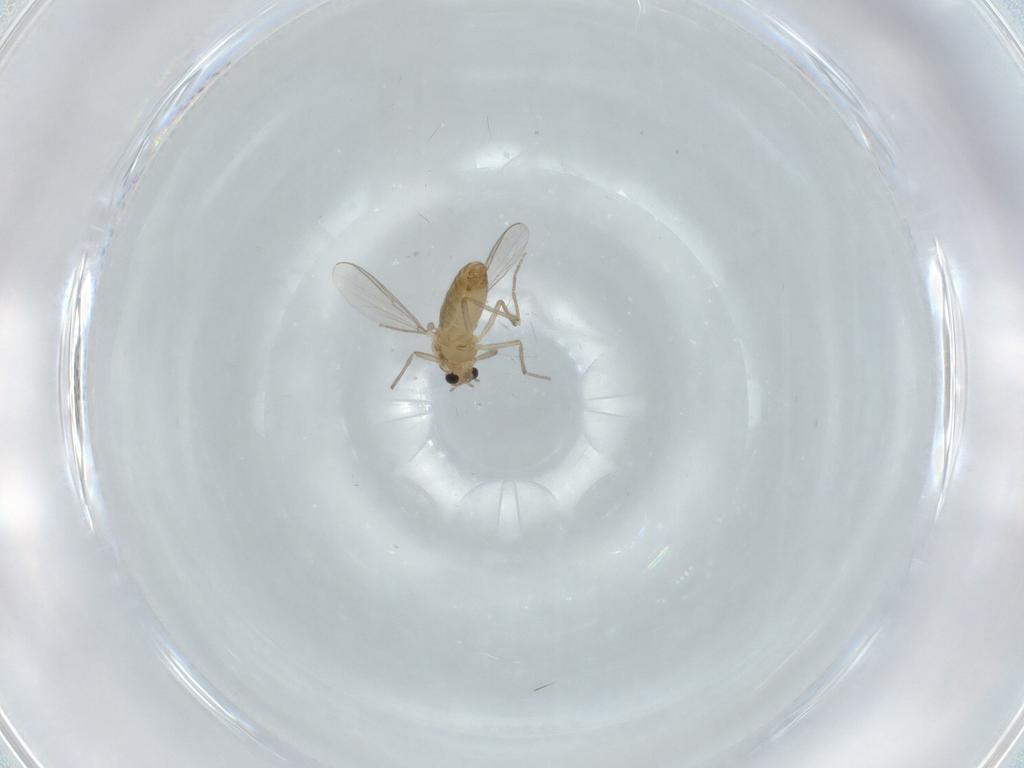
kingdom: Animalia
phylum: Arthropoda
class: Insecta
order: Diptera
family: Chironomidae
